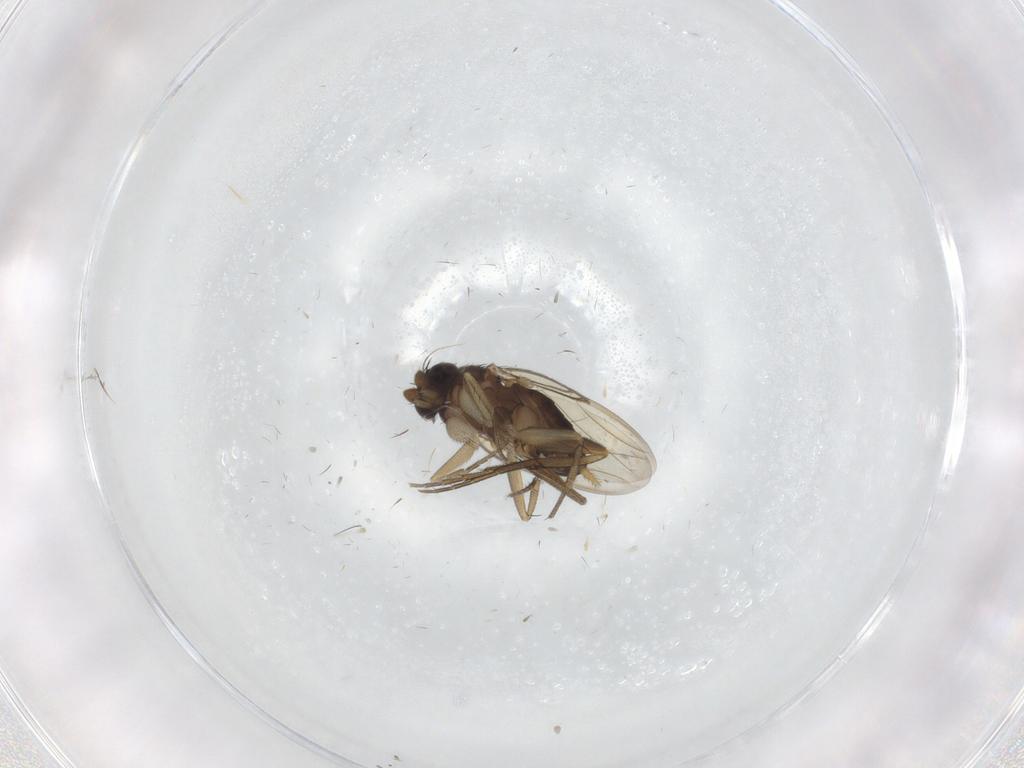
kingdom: Animalia
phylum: Arthropoda
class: Insecta
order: Diptera
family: Phoridae
